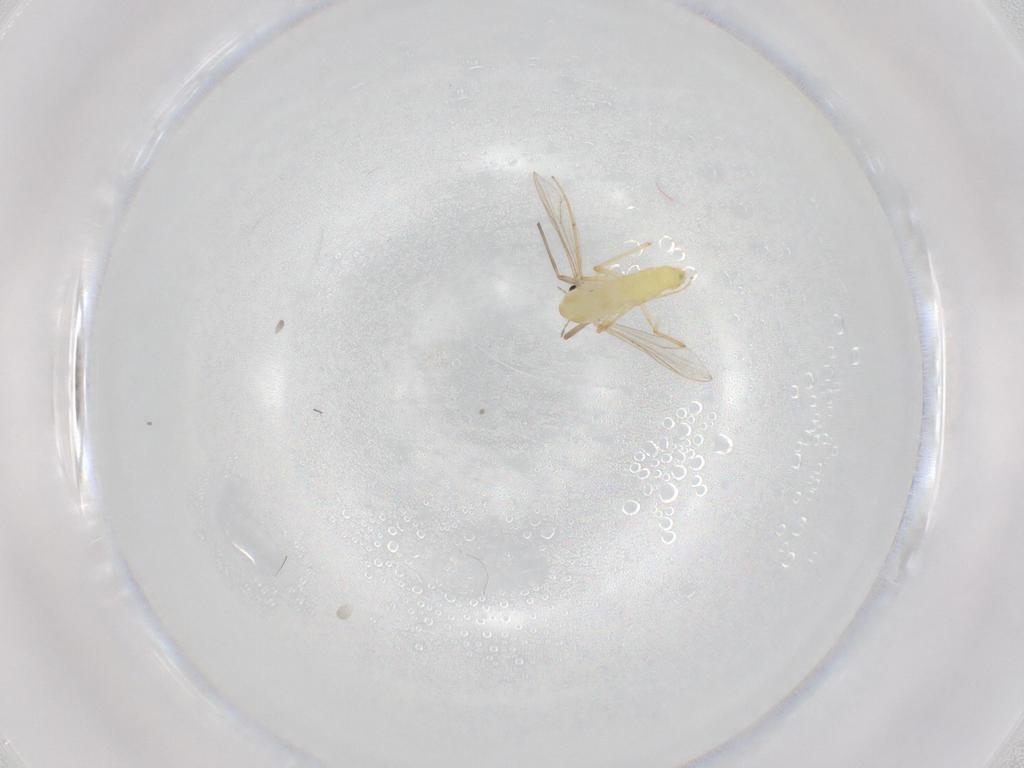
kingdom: Animalia
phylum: Arthropoda
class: Insecta
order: Diptera
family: Chironomidae
